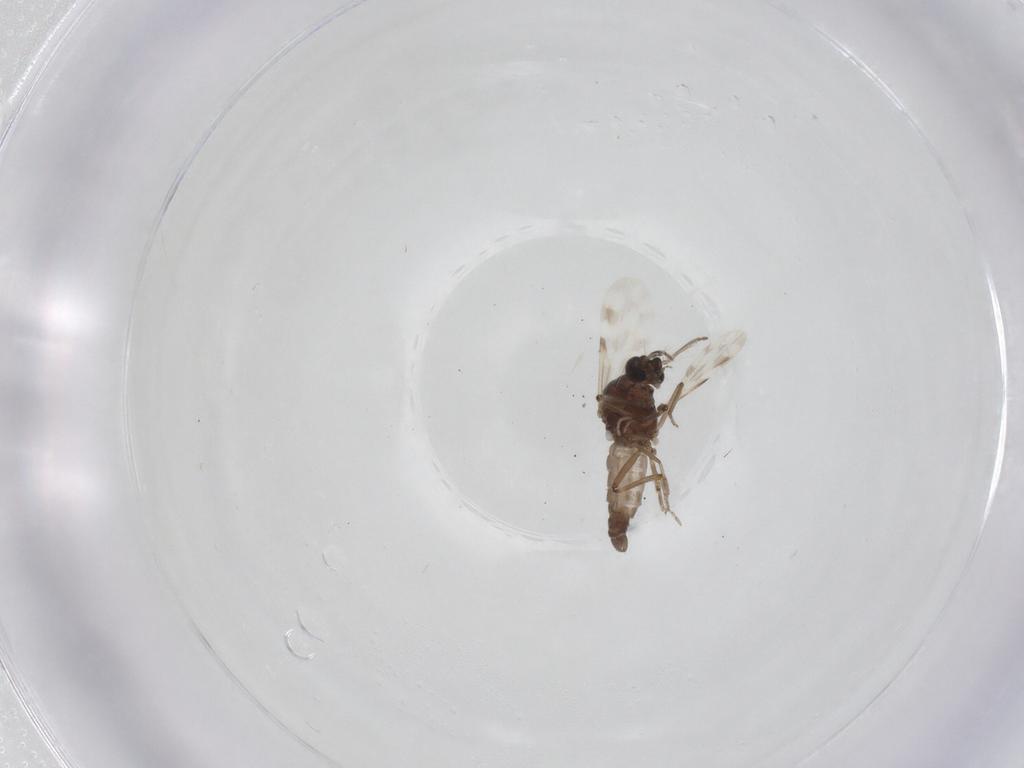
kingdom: Animalia
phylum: Arthropoda
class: Insecta
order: Diptera
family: Ceratopogonidae
